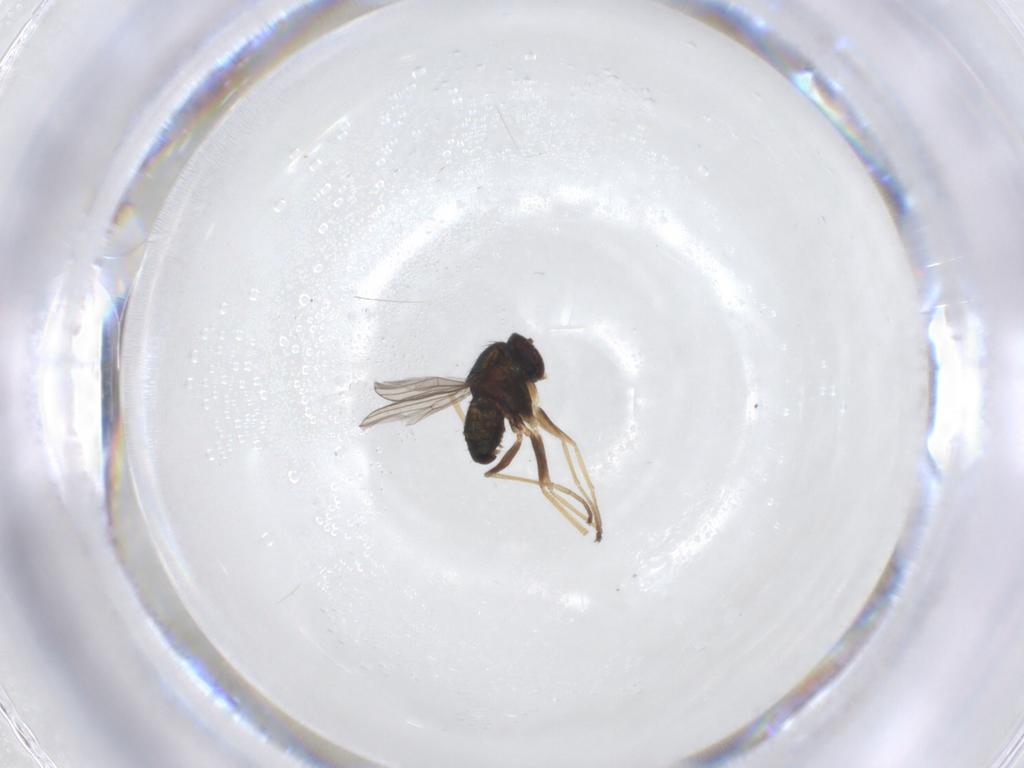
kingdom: Animalia
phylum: Arthropoda
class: Insecta
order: Diptera
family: Dolichopodidae
